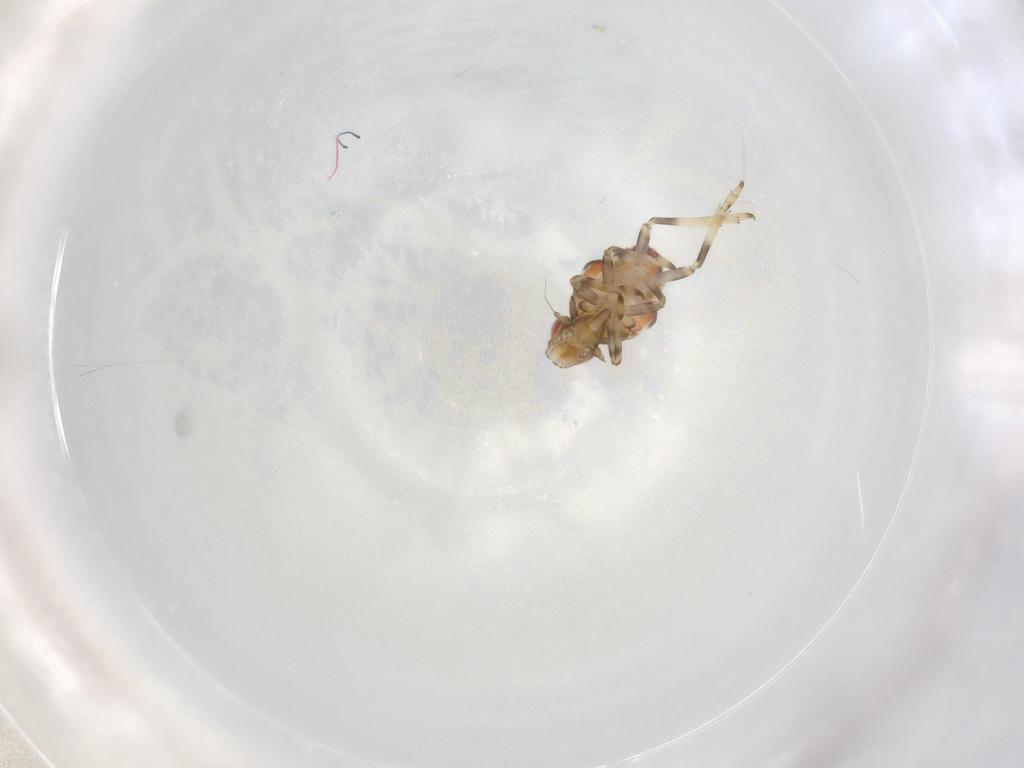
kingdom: Animalia
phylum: Arthropoda
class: Insecta
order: Hemiptera
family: Tropiduchidae
